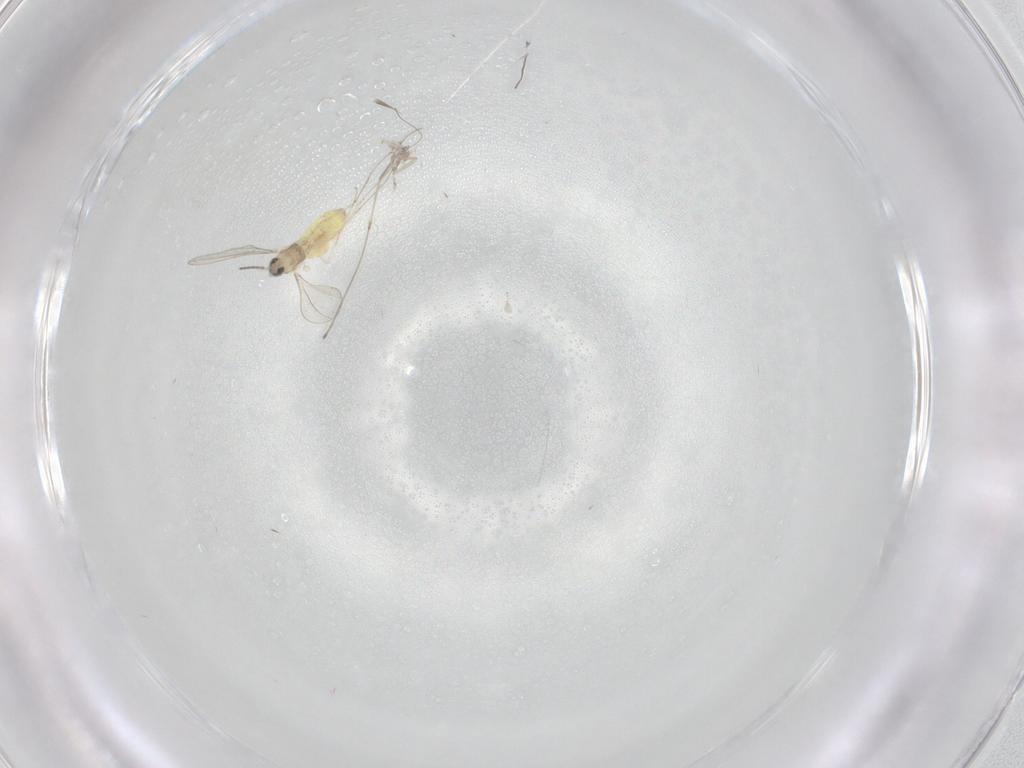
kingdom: Animalia
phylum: Arthropoda
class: Insecta
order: Diptera
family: Cecidomyiidae
